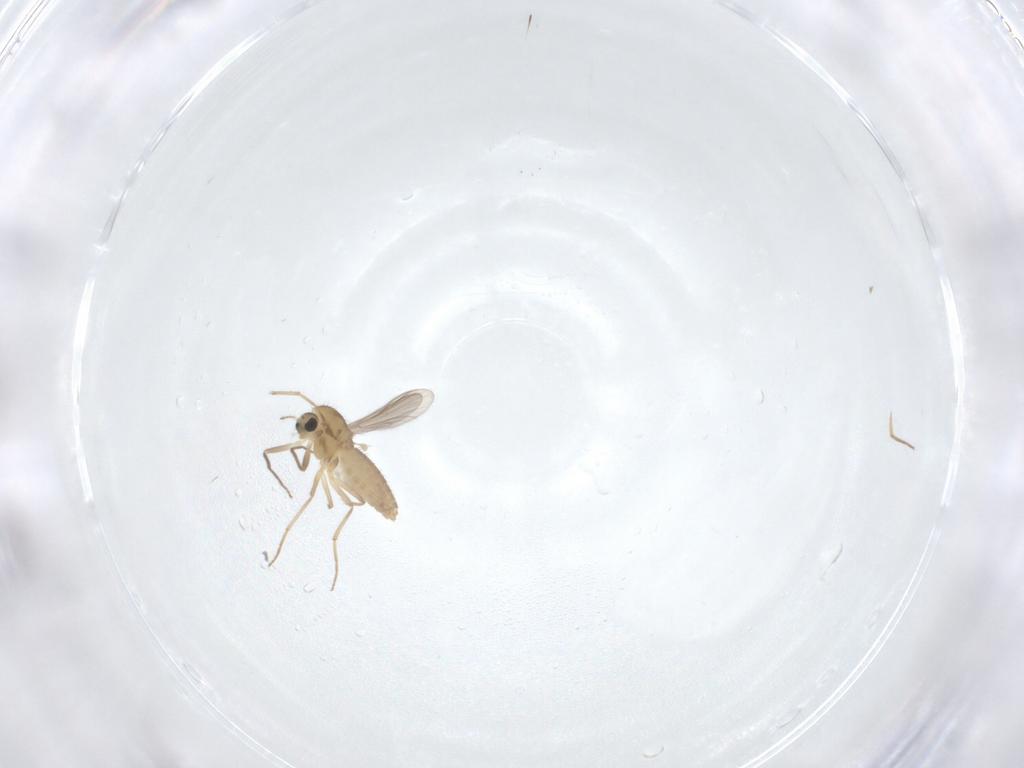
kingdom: Animalia
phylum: Arthropoda
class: Insecta
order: Diptera
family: Chironomidae
